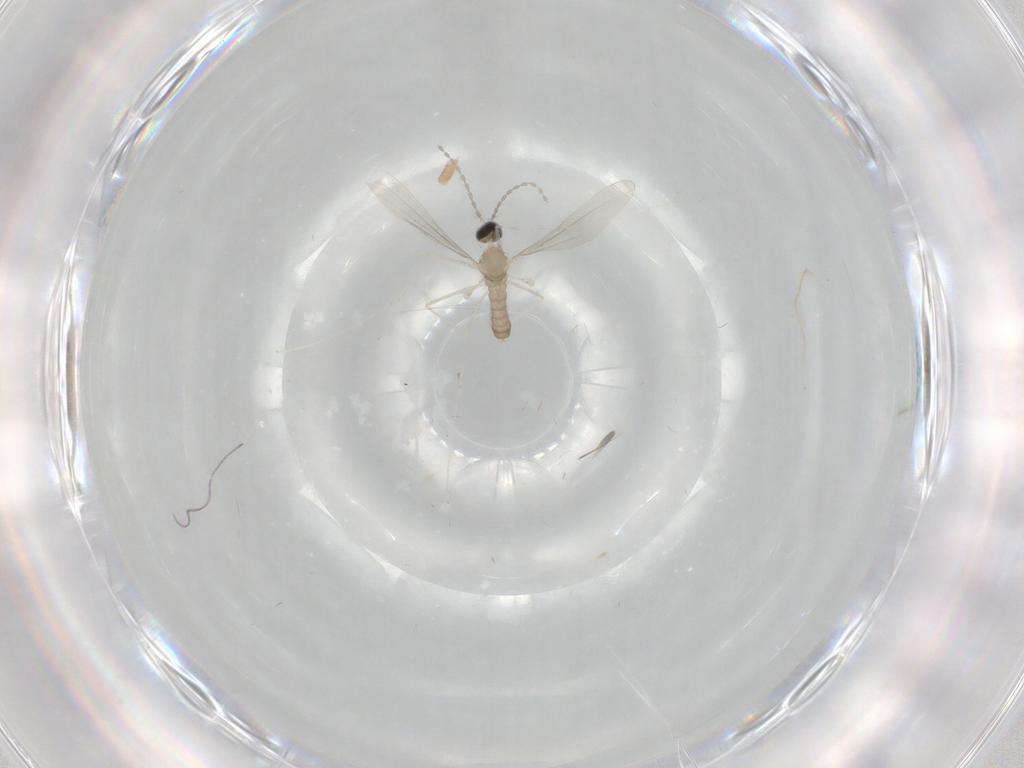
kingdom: Animalia
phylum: Arthropoda
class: Insecta
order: Diptera
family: Cecidomyiidae
